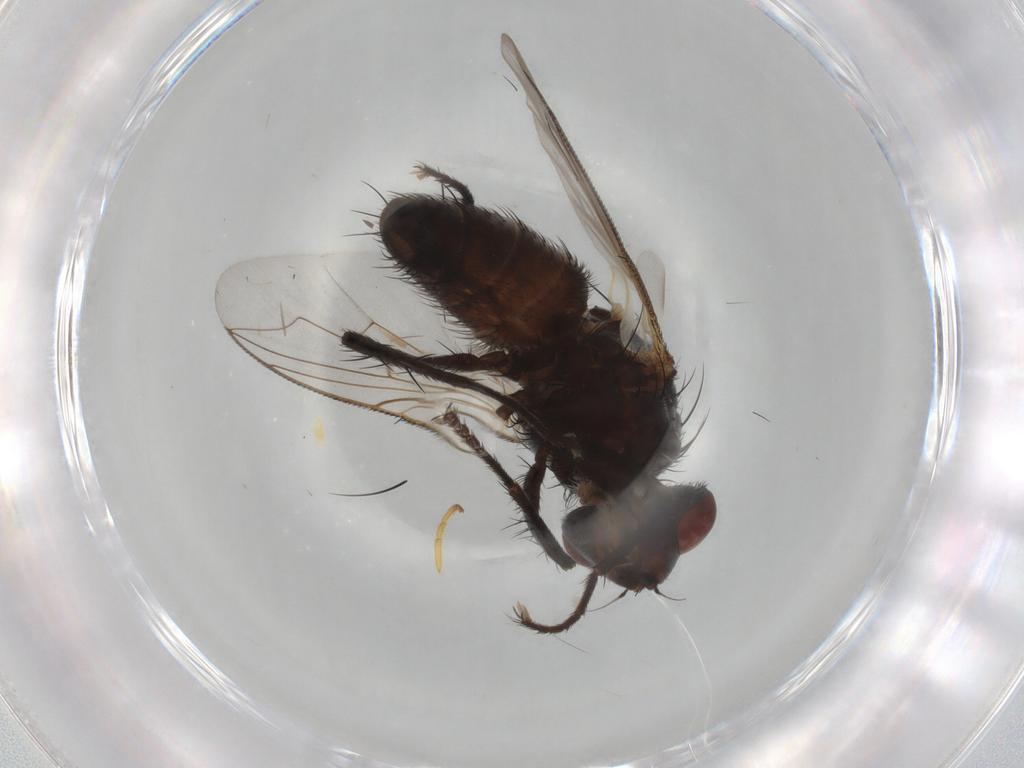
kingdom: Animalia
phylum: Arthropoda
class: Insecta
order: Diptera
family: Sarcophagidae
